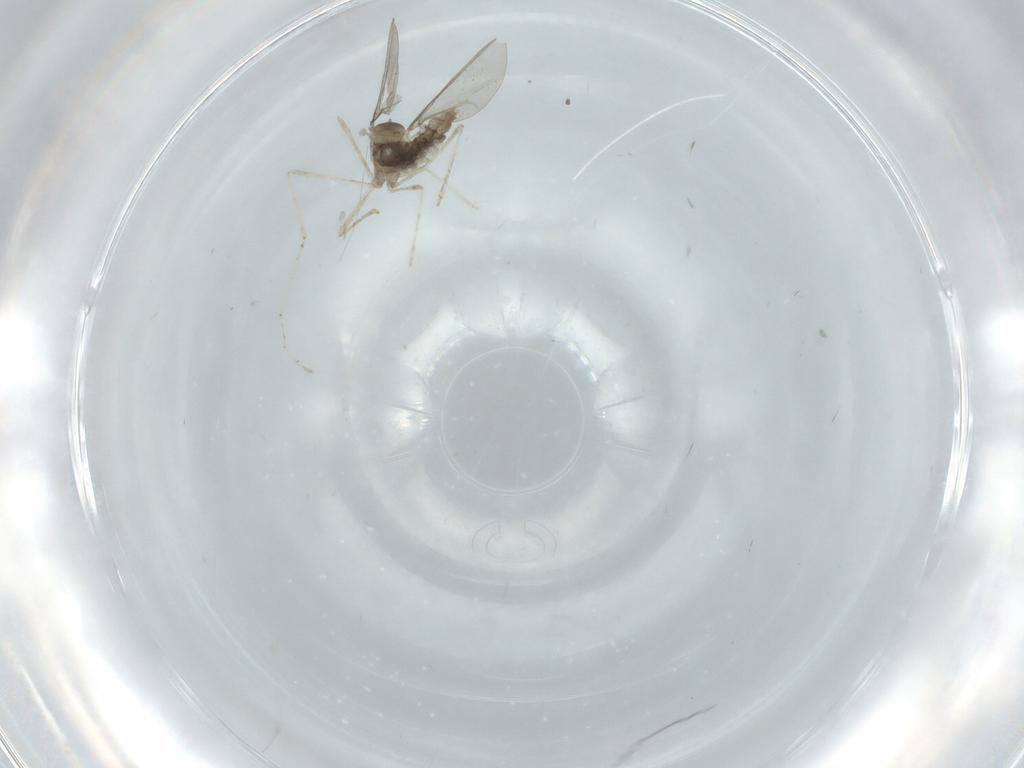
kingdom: Animalia
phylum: Arthropoda
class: Insecta
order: Diptera
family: Cecidomyiidae
